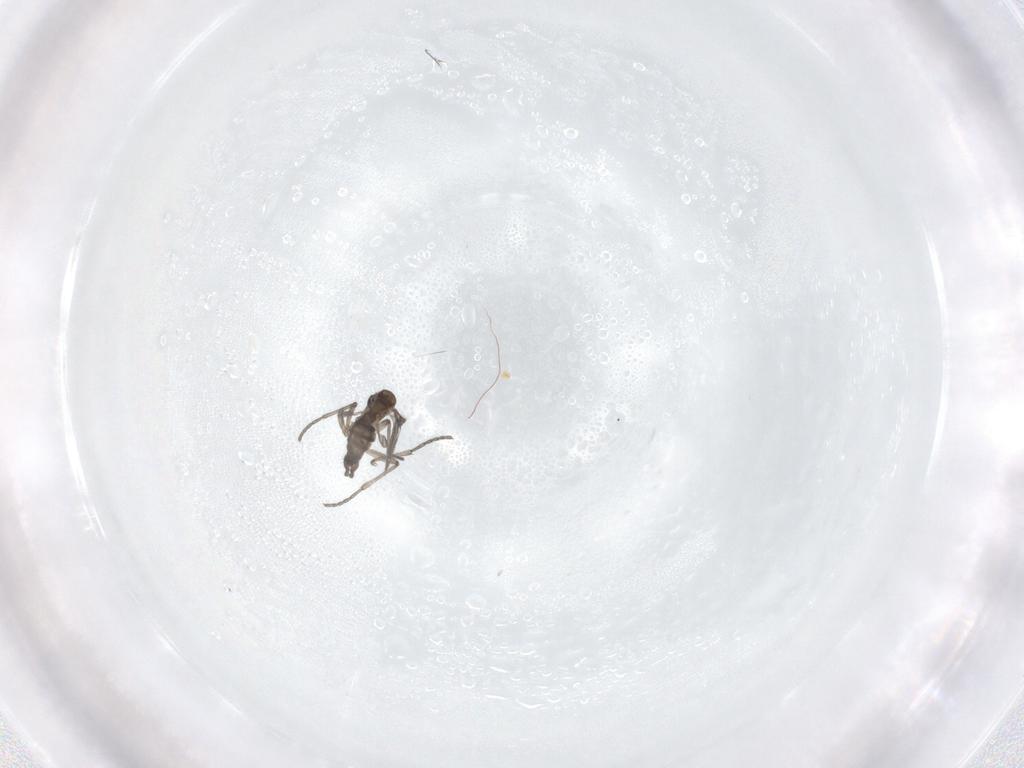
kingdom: Animalia
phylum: Arthropoda
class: Insecta
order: Diptera
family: Sciaridae
